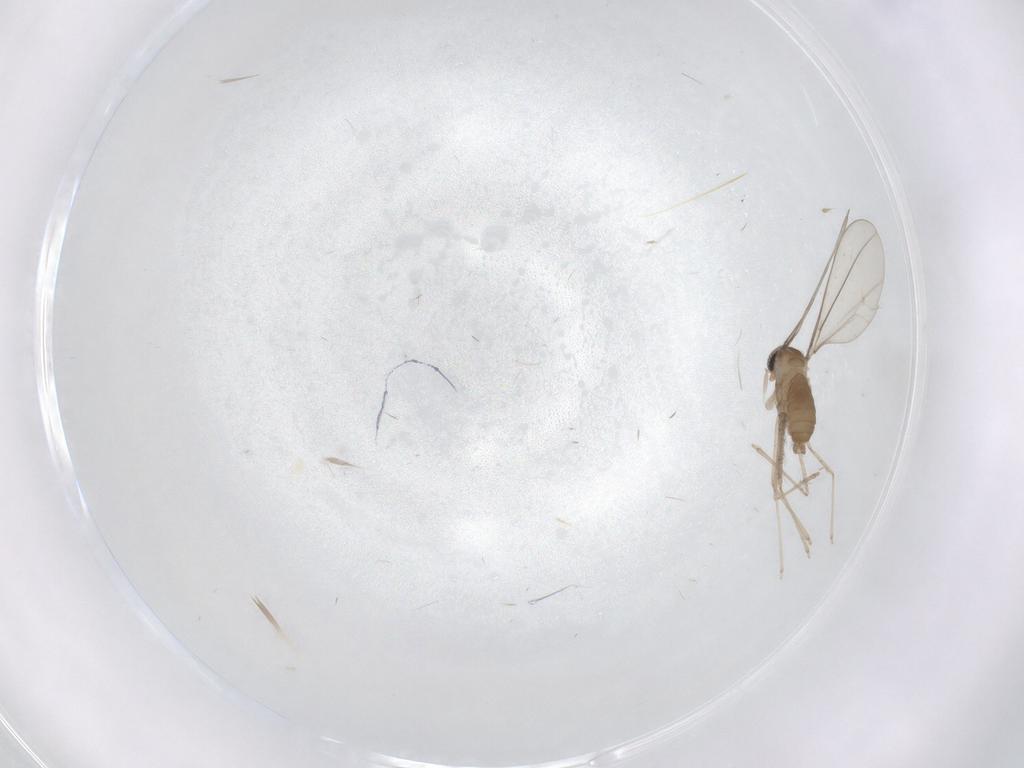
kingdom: Animalia
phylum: Arthropoda
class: Insecta
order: Diptera
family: Sciaridae
